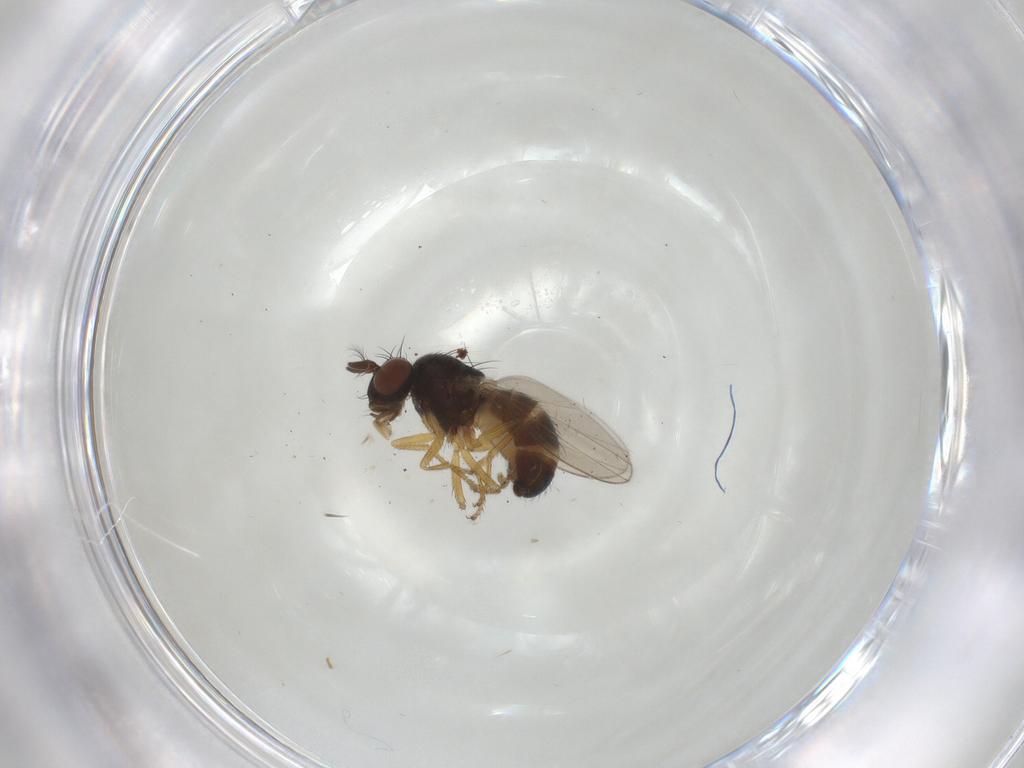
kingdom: Animalia
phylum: Arthropoda
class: Insecta
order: Diptera
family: Ephydridae
